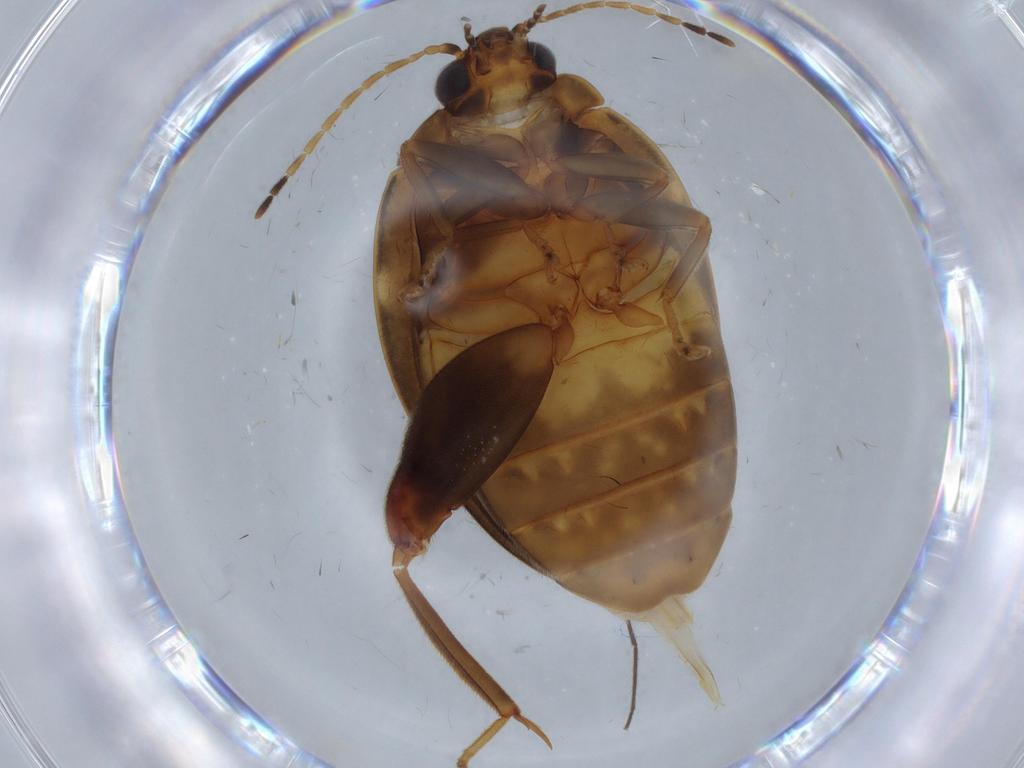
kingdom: Animalia
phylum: Arthropoda
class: Insecta
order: Coleoptera
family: Scirtidae
